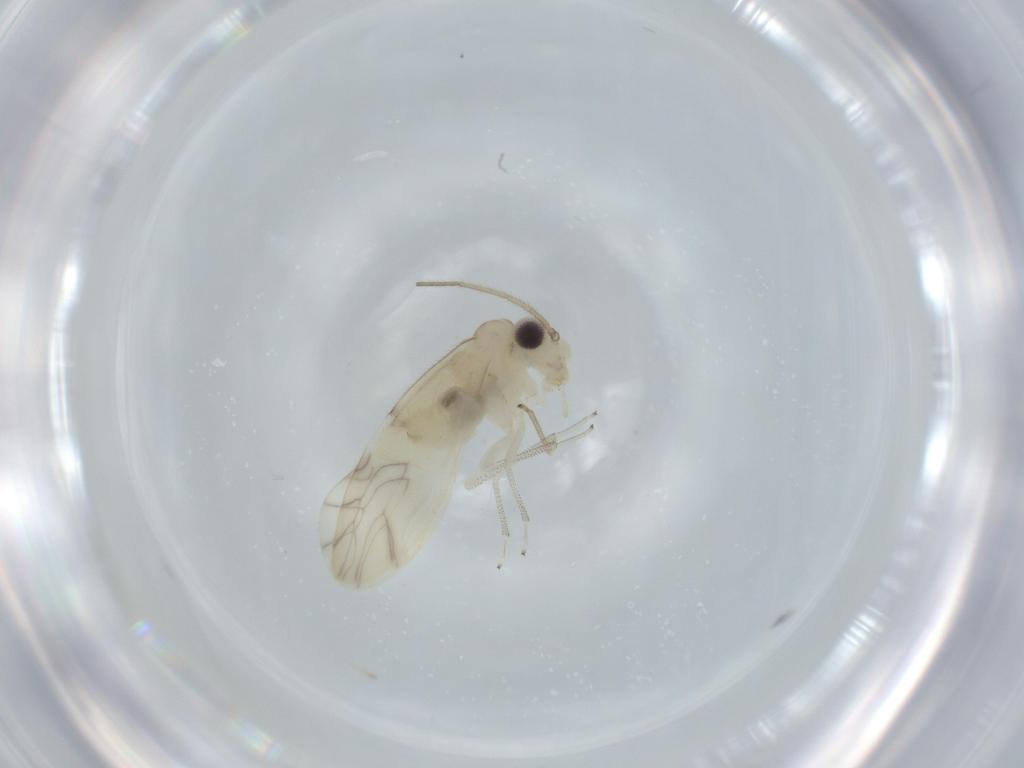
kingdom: Animalia
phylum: Arthropoda
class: Insecta
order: Psocodea
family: Caeciliusidae
